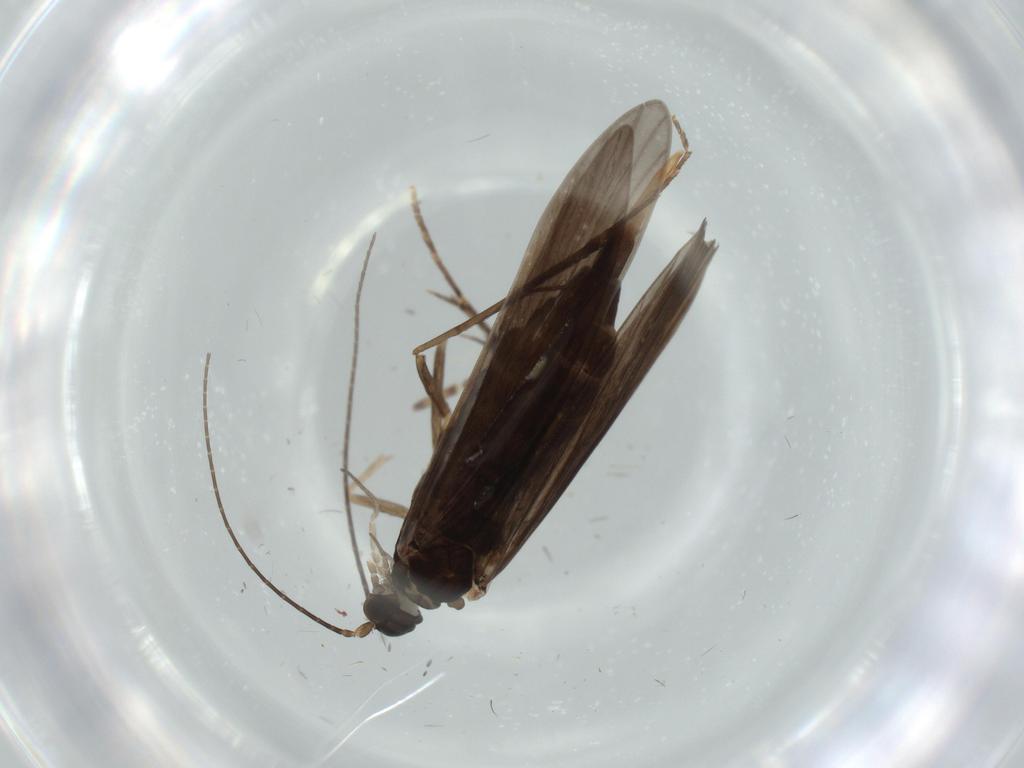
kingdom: Animalia
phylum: Arthropoda
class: Insecta
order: Trichoptera
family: Xiphocentronidae
